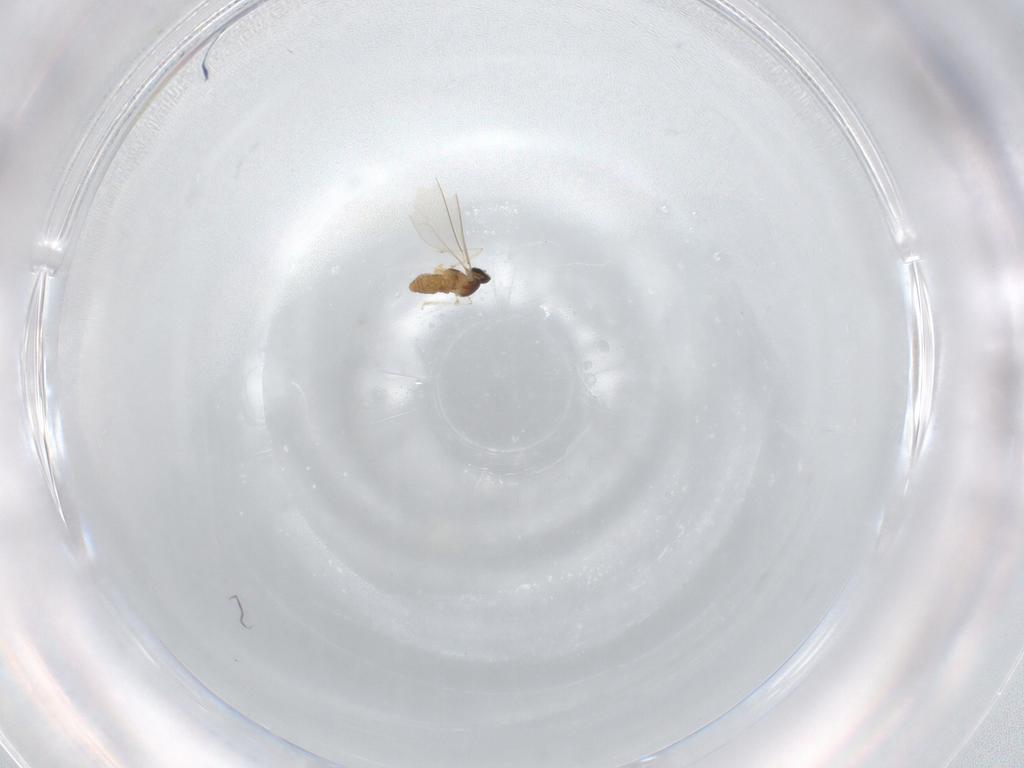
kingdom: Animalia
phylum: Arthropoda
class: Insecta
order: Diptera
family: Cecidomyiidae
